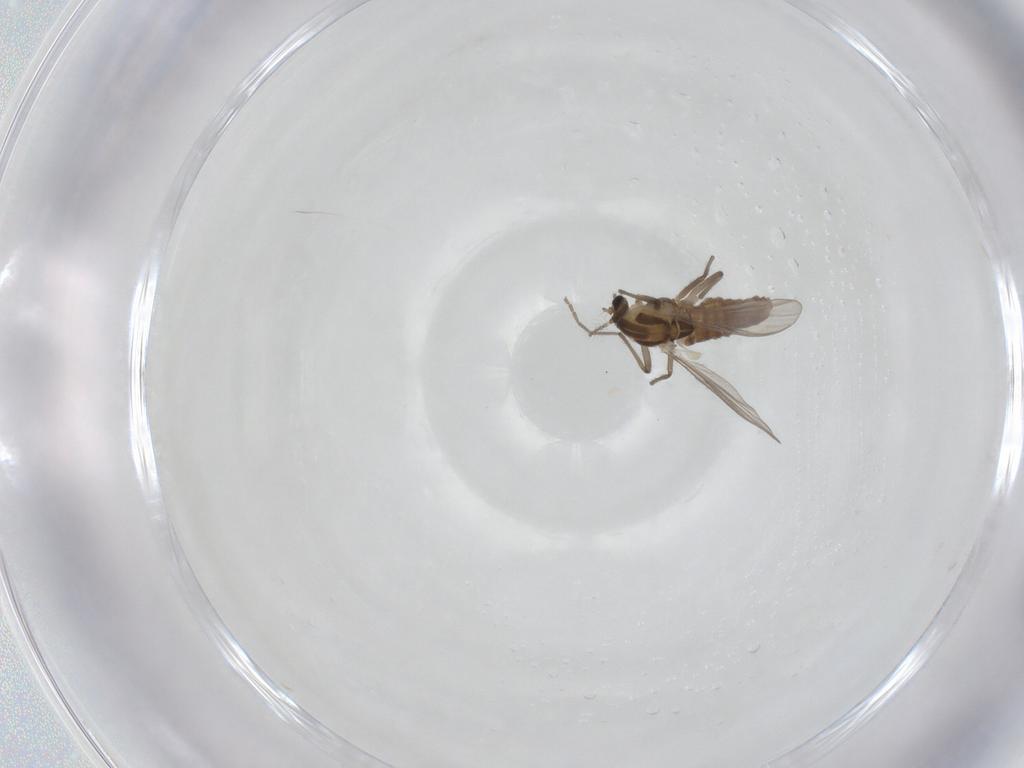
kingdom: Animalia
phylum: Arthropoda
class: Insecta
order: Diptera
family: Chironomidae
